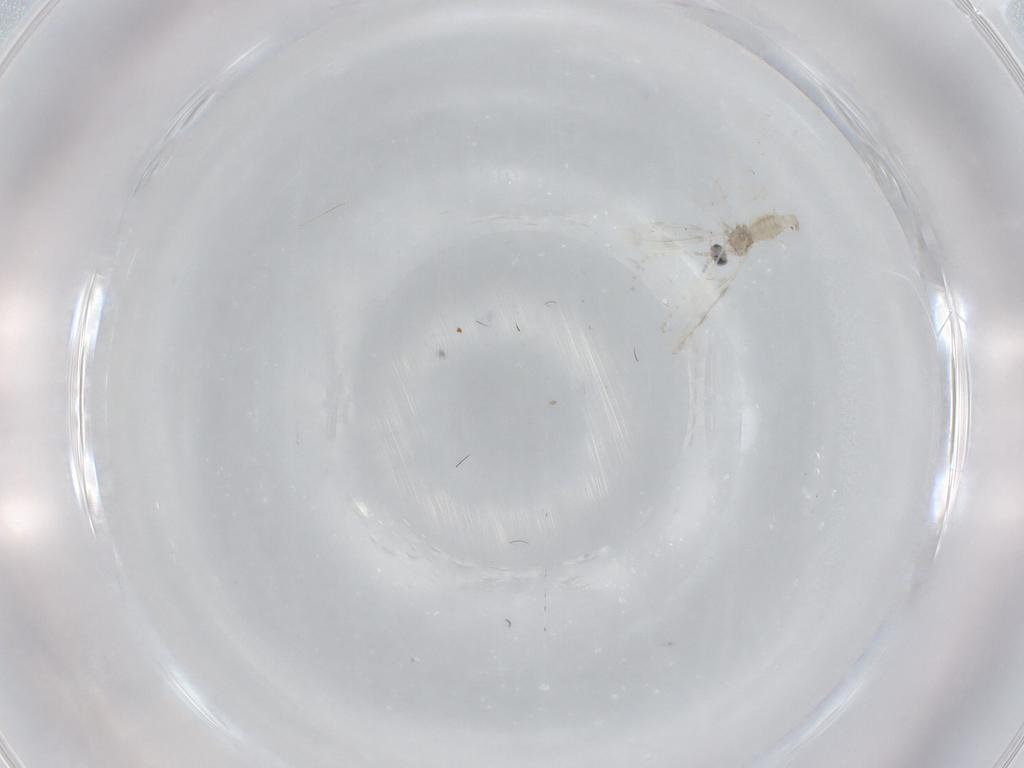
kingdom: Animalia
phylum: Arthropoda
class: Insecta
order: Diptera
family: Cecidomyiidae
